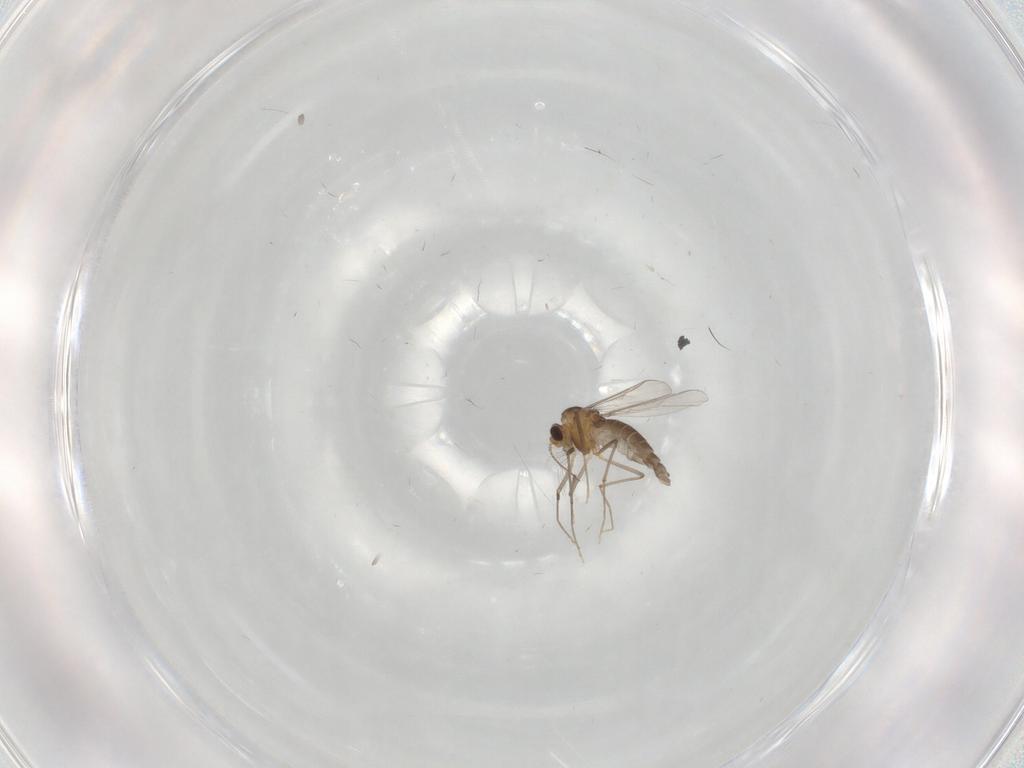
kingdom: Animalia
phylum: Arthropoda
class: Insecta
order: Diptera
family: Chironomidae
